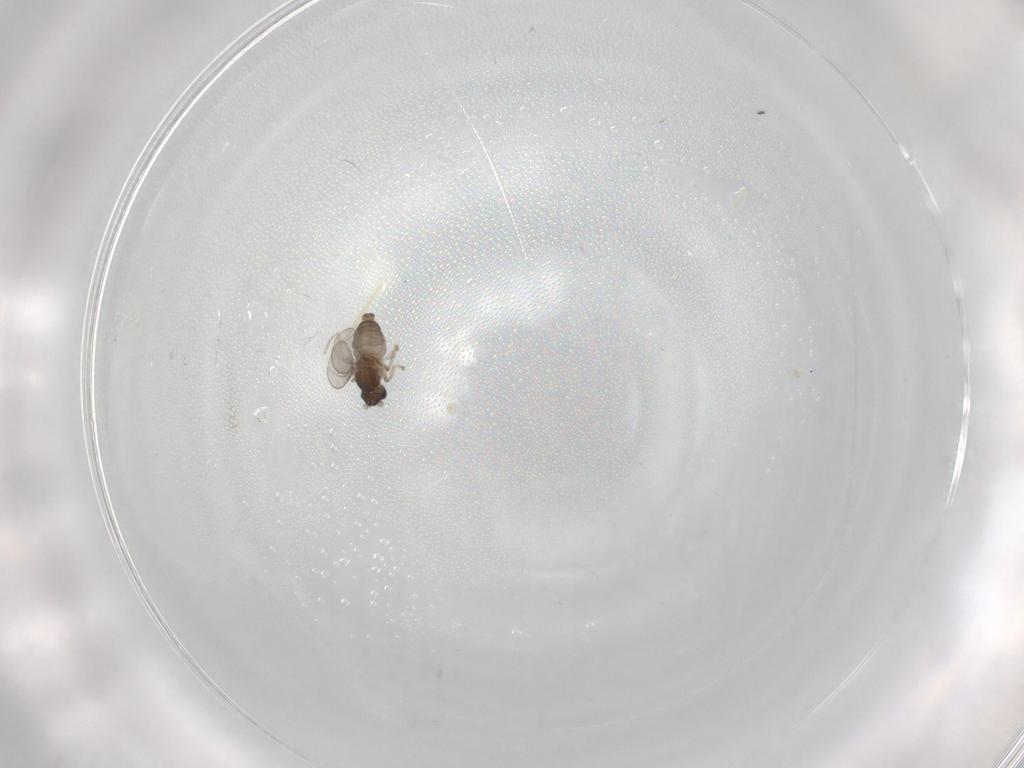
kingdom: Animalia
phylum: Arthropoda
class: Insecta
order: Diptera
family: Cecidomyiidae
